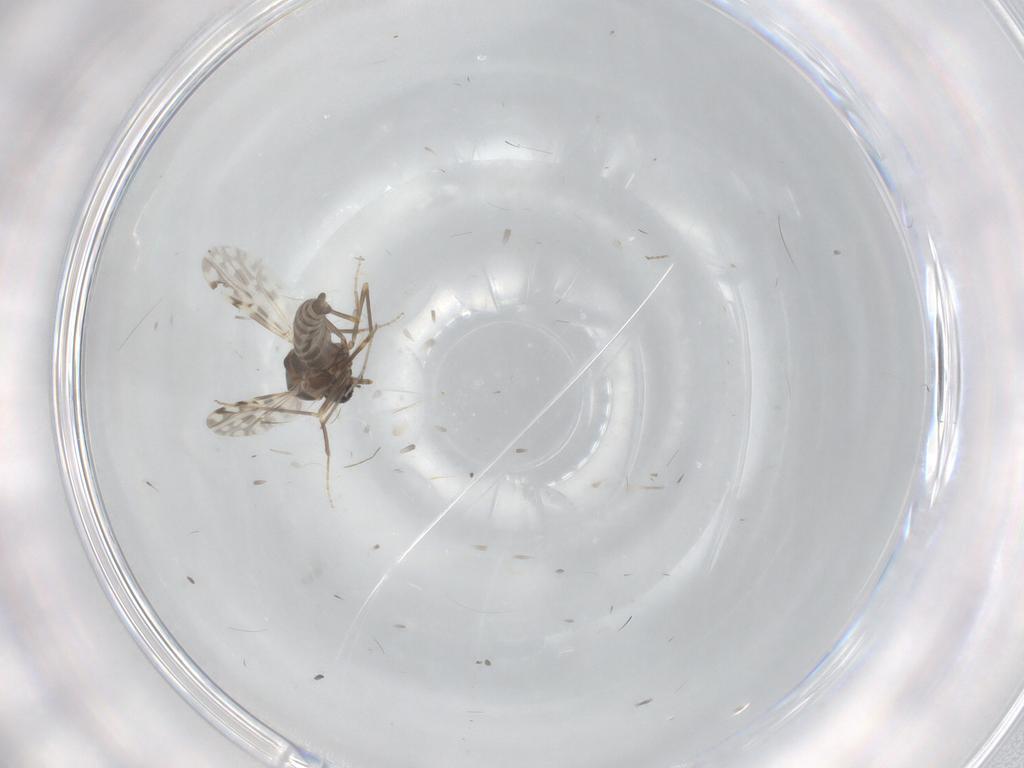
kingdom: Animalia
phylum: Arthropoda
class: Insecta
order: Diptera
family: Ceratopogonidae
